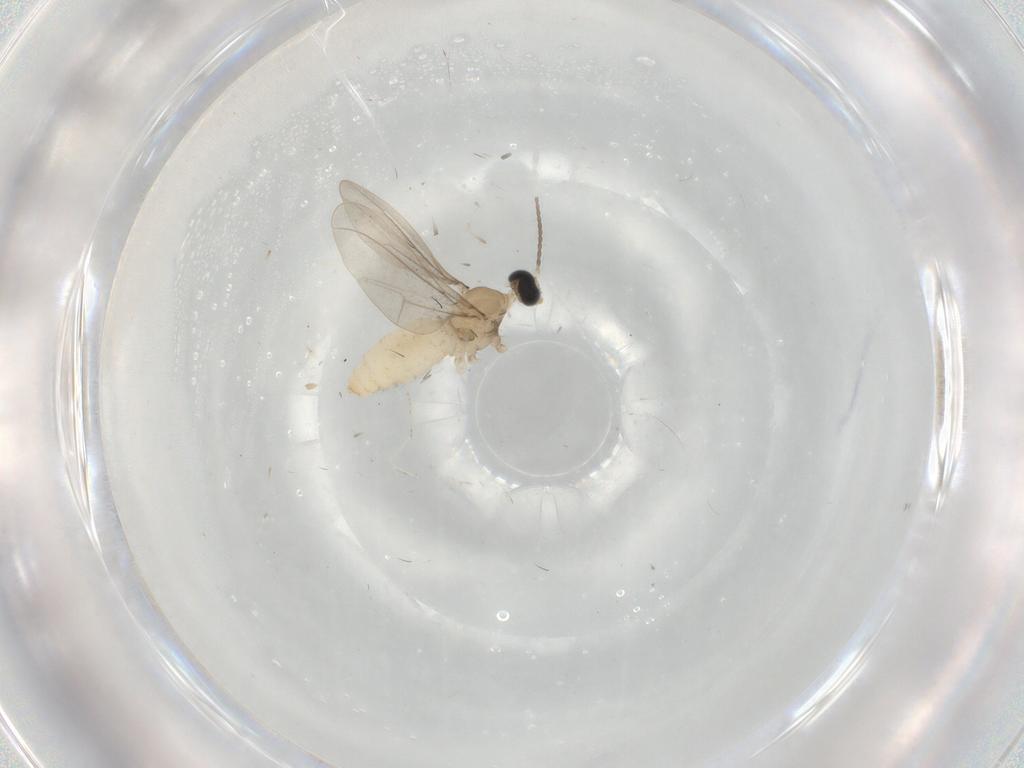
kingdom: Animalia
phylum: Arthropoda
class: Insecta
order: Diptera
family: Cecidomyiidae
